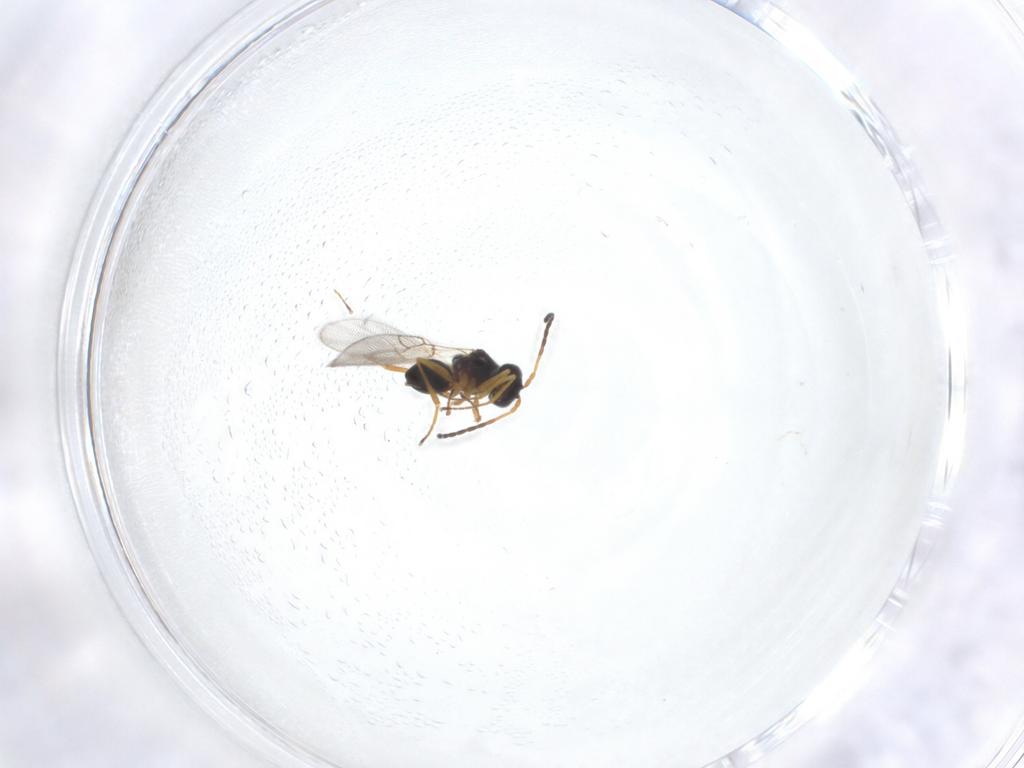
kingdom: Animalia
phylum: Arthropoda
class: Insecta
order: Hymenoptera
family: Figitidae
